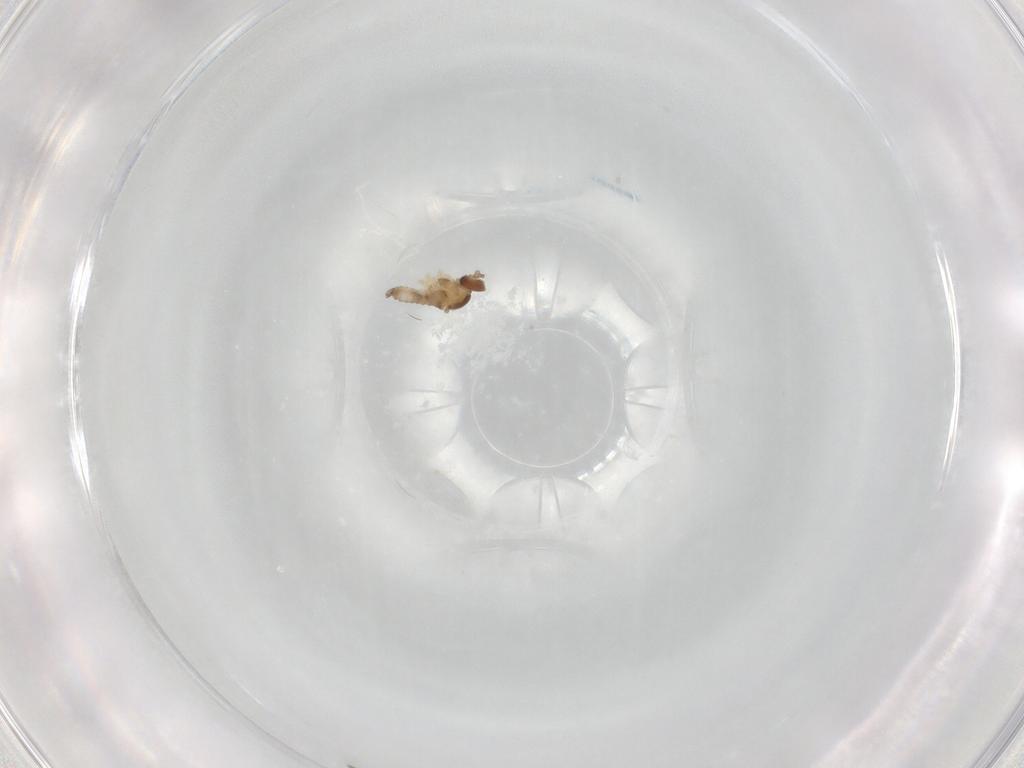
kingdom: Animalia
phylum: Arthropoda
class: Insecta
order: Diptera
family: Cecidomyiidae
